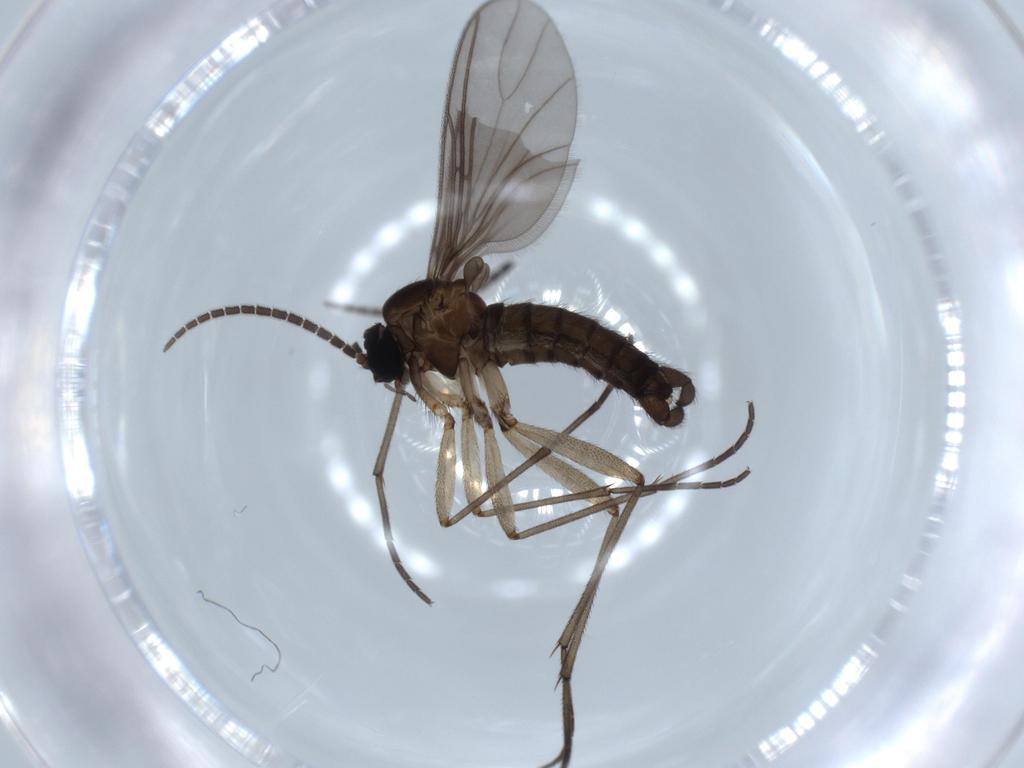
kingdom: Animalia
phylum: Arthropoda
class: Insecta
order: Diptera
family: Sciaridae
